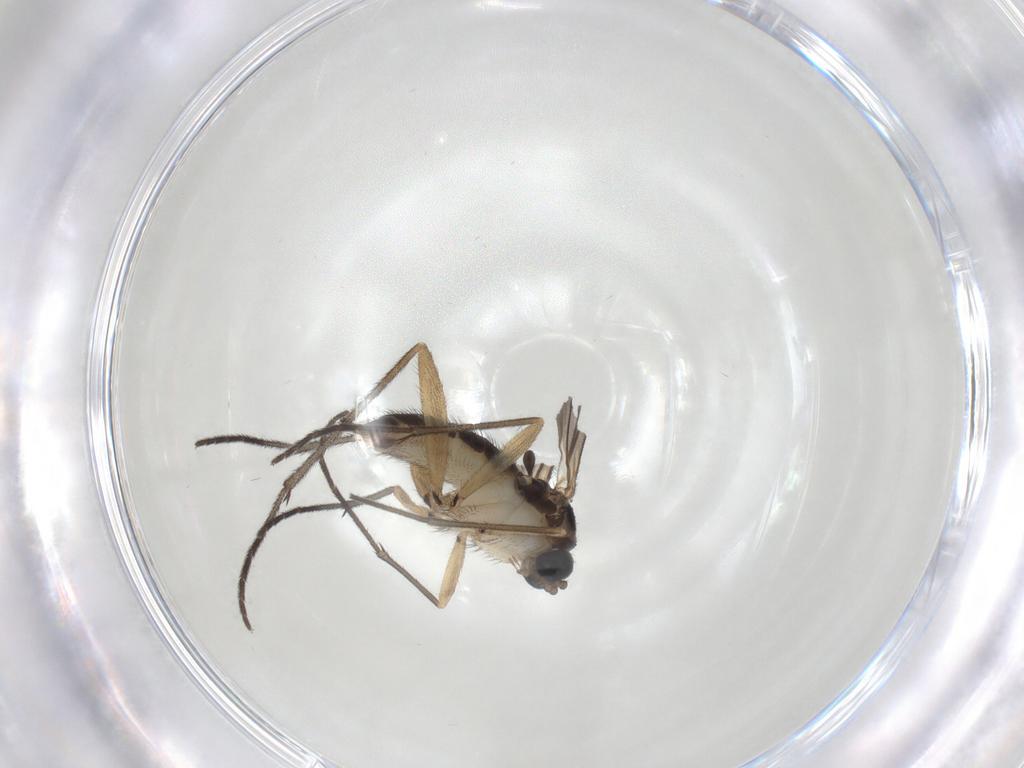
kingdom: Animalia
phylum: Arthropoda
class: Insecta
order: Diptera
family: Sciaridae
